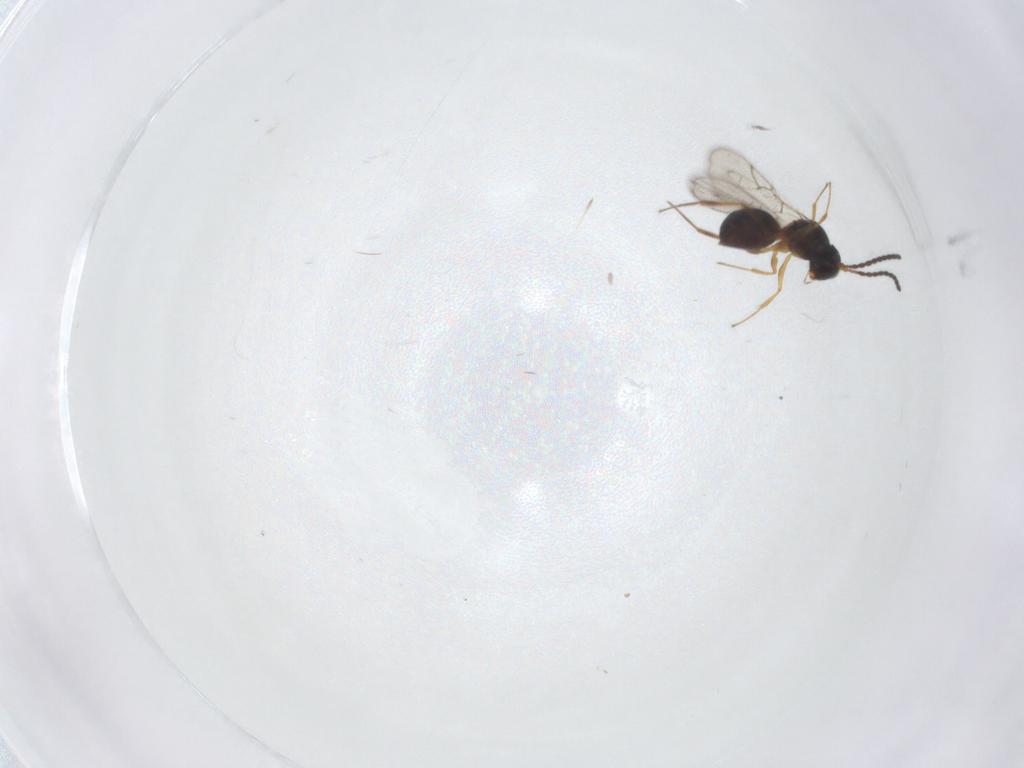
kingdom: Animalia
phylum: Arthropoda
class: Insecta
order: Hymenoptera
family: Figitidae
